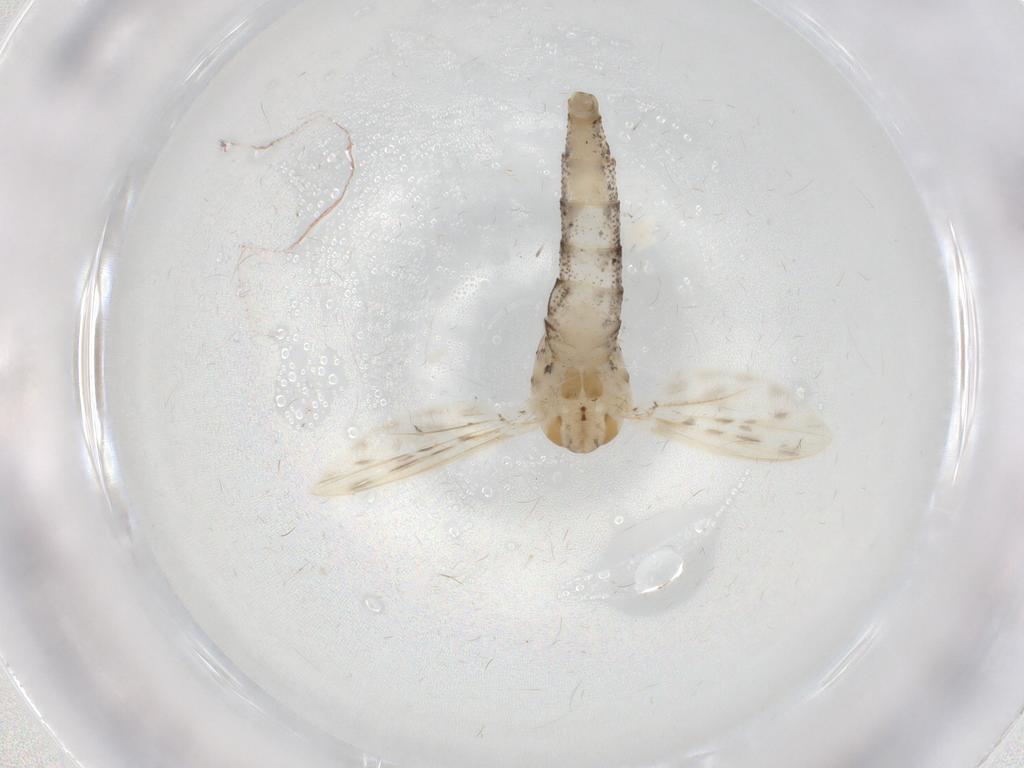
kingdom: Animalia
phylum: Arthropoda
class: Insecta
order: Diptera
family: Chaoboridae
